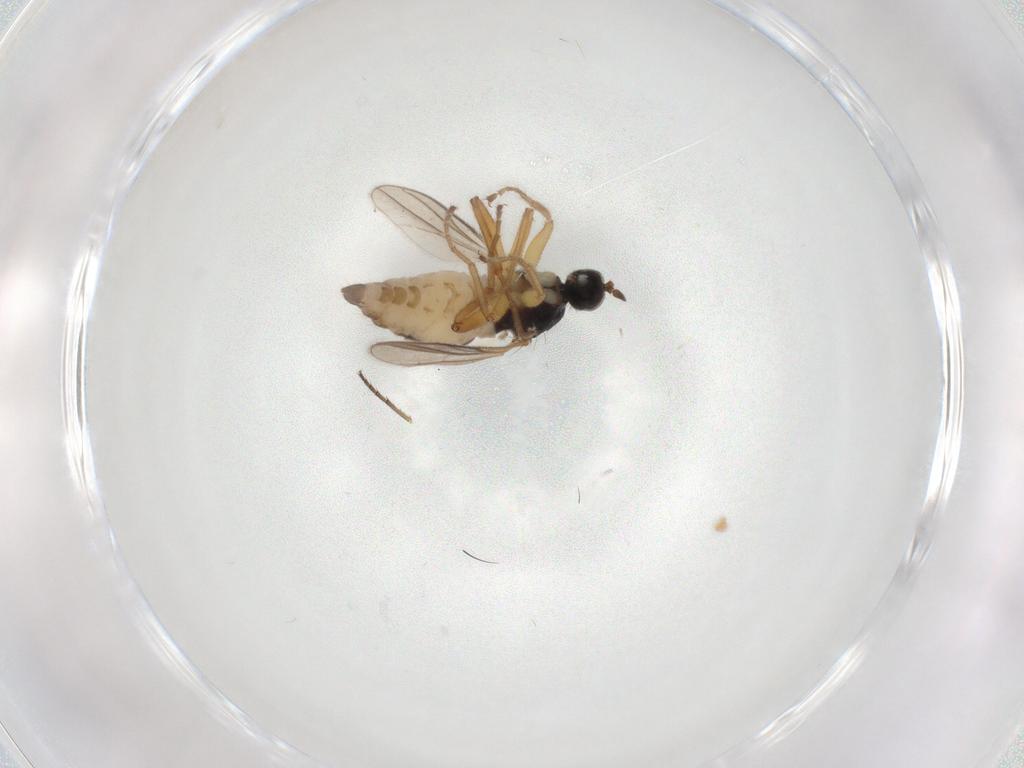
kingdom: Animalia
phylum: Arthropoda
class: Insecta
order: Diptera
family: Hybotidae
